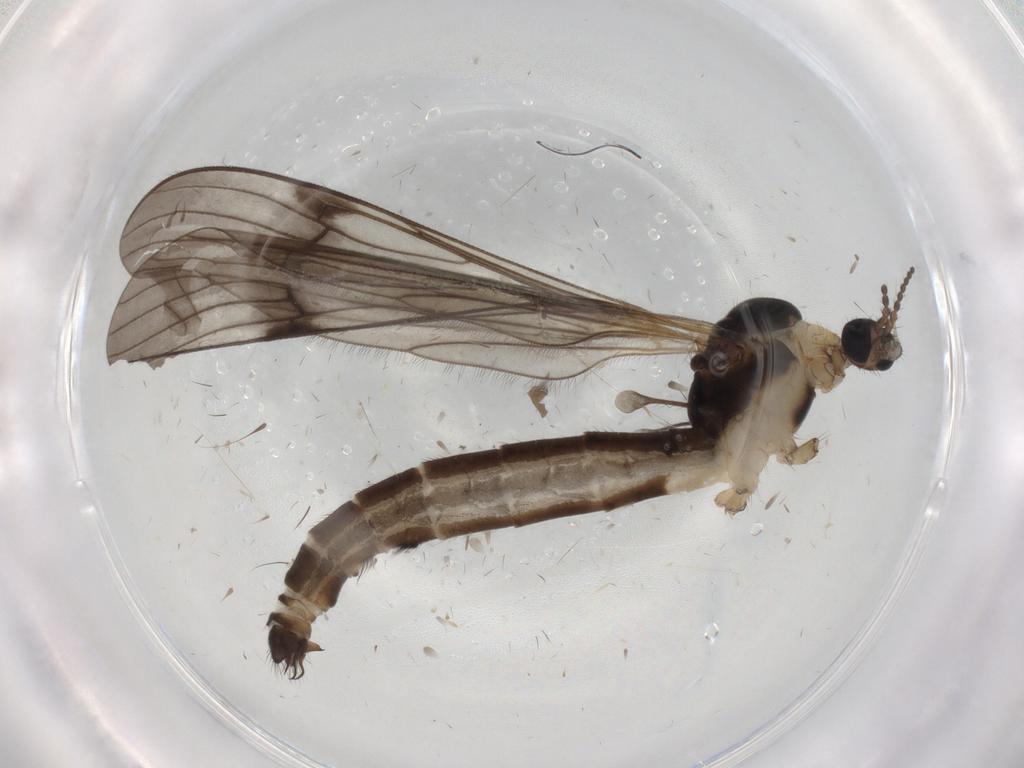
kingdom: Animalia
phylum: Arthropoda
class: Insecta
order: Diptera
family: Limoniidae
